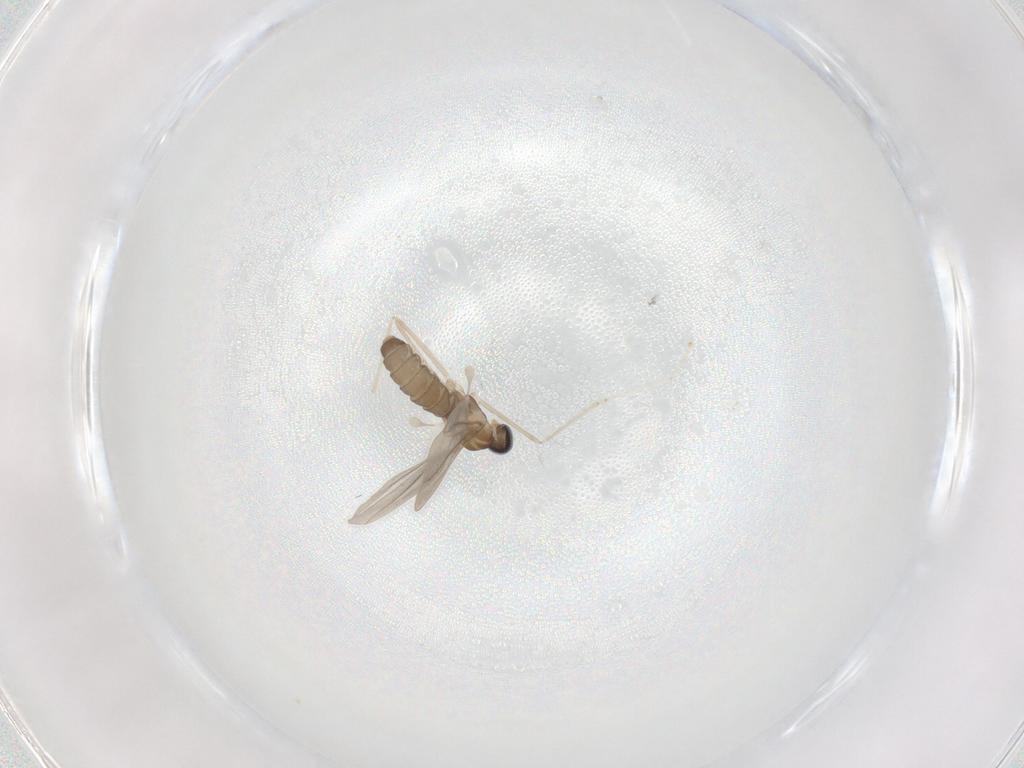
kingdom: Animalia
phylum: Arthropoda
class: Insecta
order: Diptera
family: Cecidomyiidae
